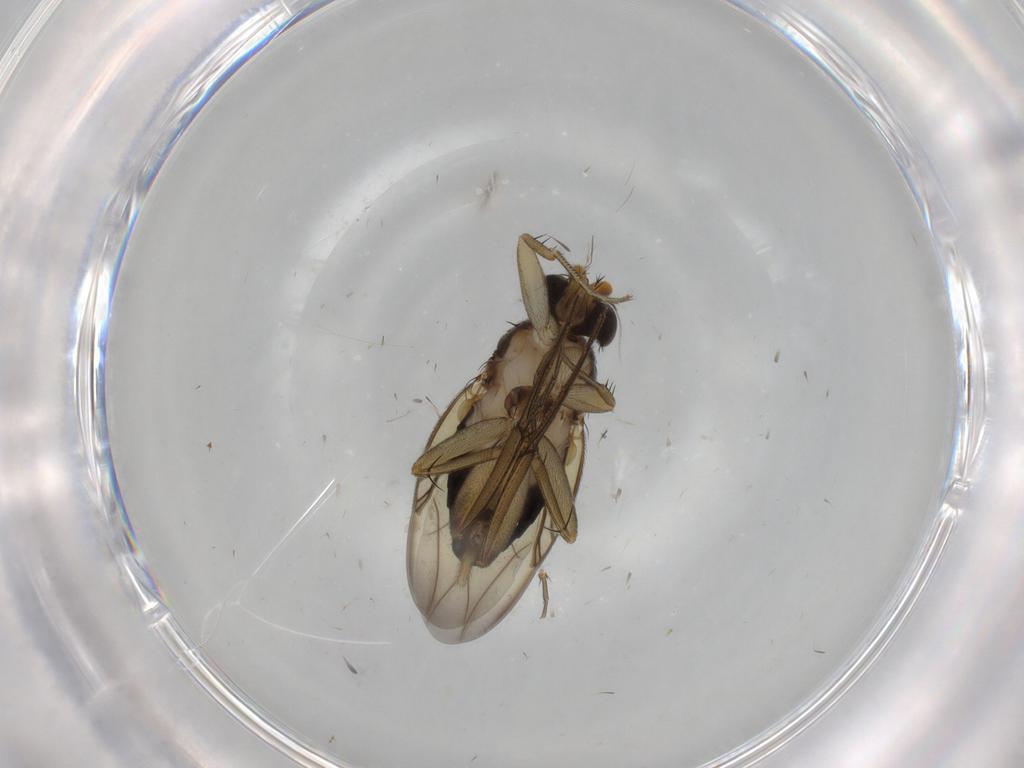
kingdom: Animalia
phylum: Arthropoda
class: Insecta
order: Diptera
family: Phoridae
